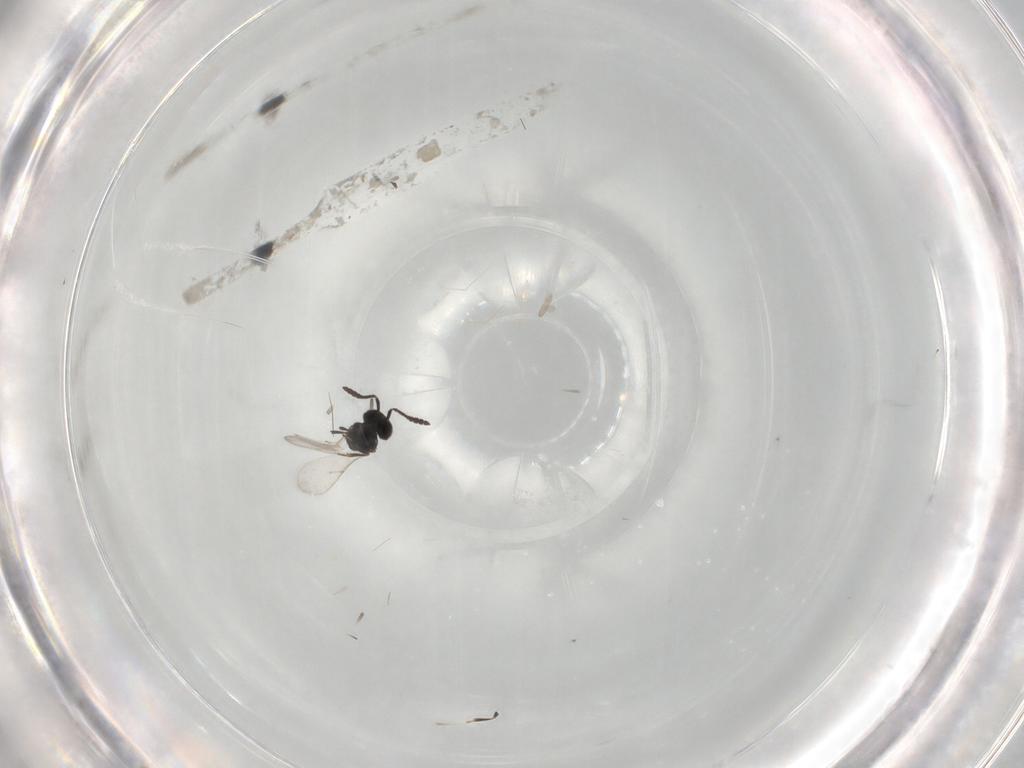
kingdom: Animalia
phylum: Arthropoda
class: Insecta
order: Hymenoptera
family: Scelionidae
